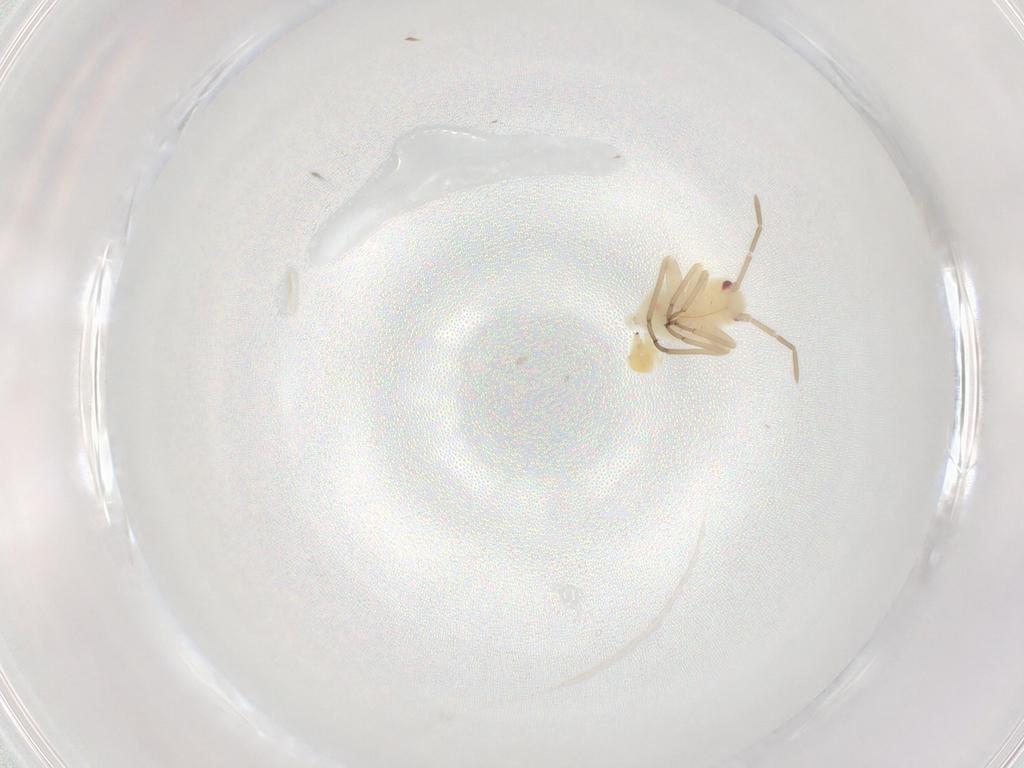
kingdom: Animalia
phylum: Arthropoda
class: Insecta
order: Hemiptera
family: Miridae
